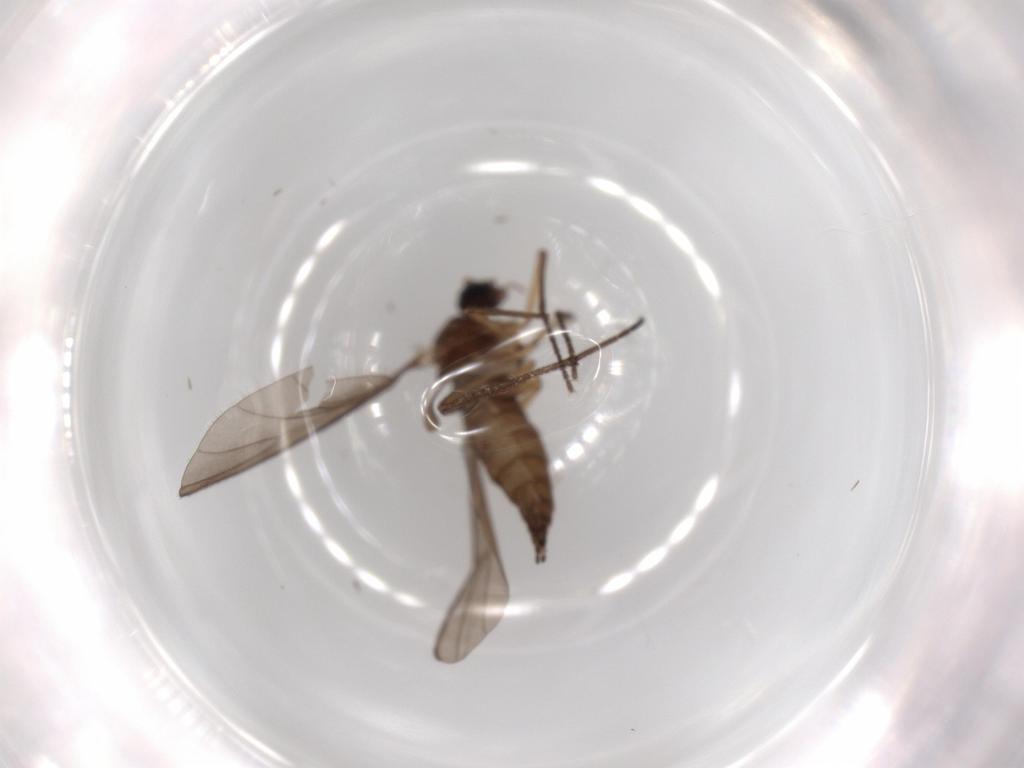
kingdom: Animalia
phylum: Arthropoda
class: Insecta
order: Diptera
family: Sciaridae
